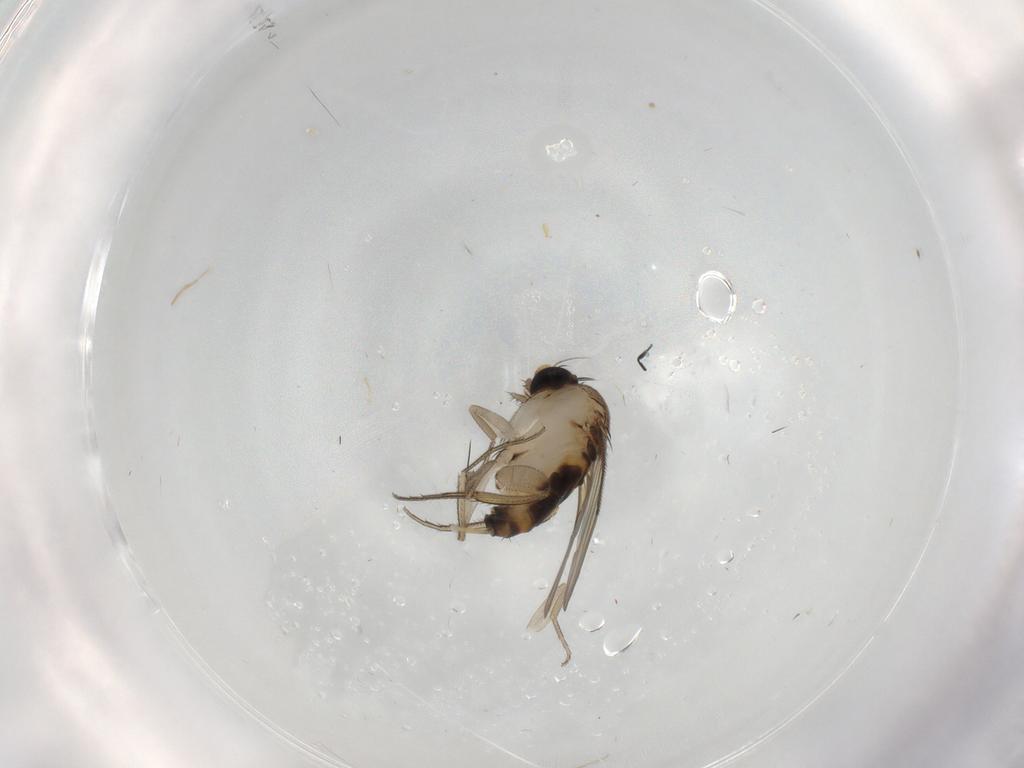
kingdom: Animalia
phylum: Arthropoda
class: Insecta
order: Diptera
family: Phoridae
